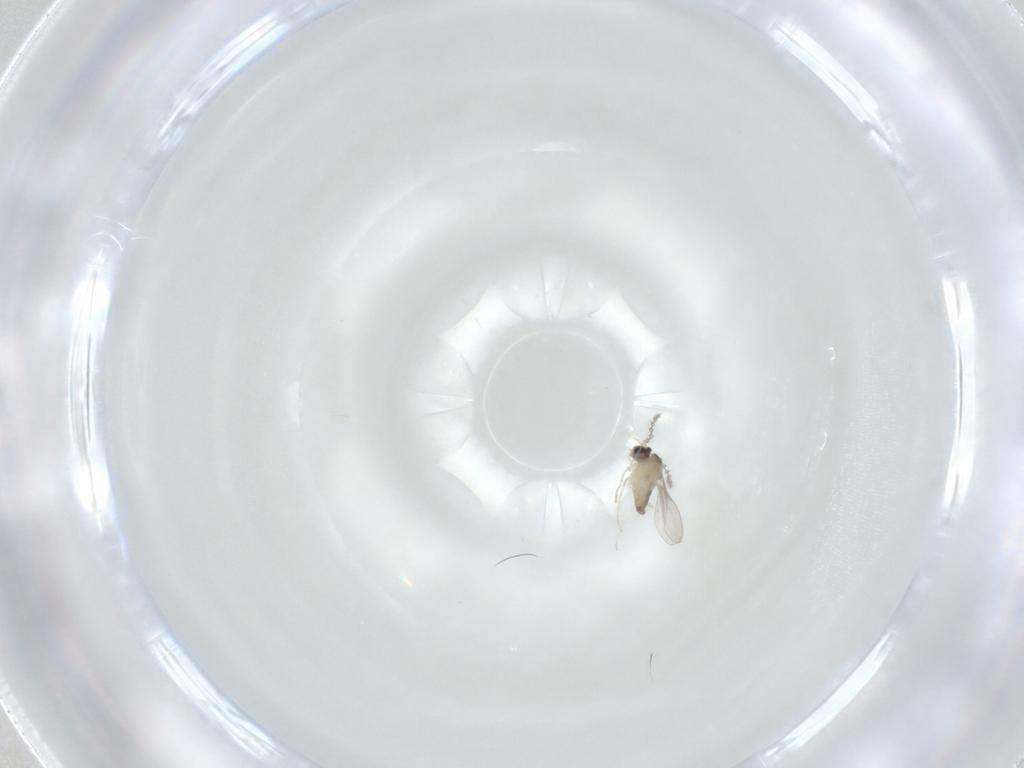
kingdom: Animalia
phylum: Arthropoda
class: Insecta
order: Diptera
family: Cecidomyiidae
